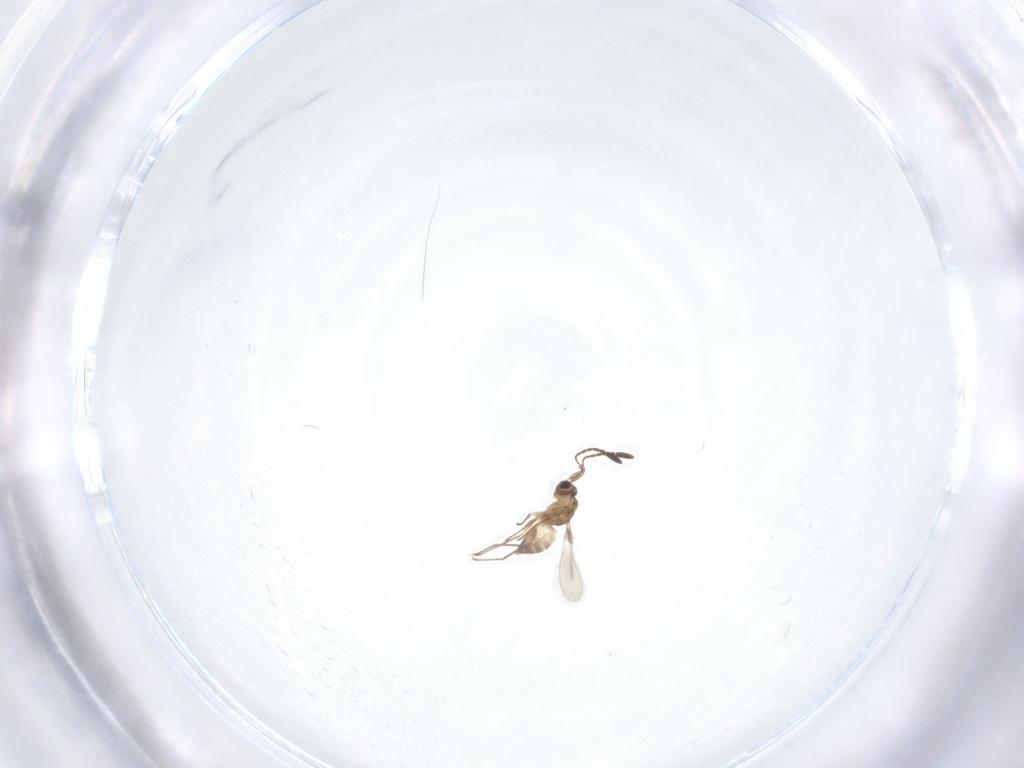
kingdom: Animalia
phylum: Arthropoda
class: Insecta
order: Hymenoptera
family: Mymaridae
